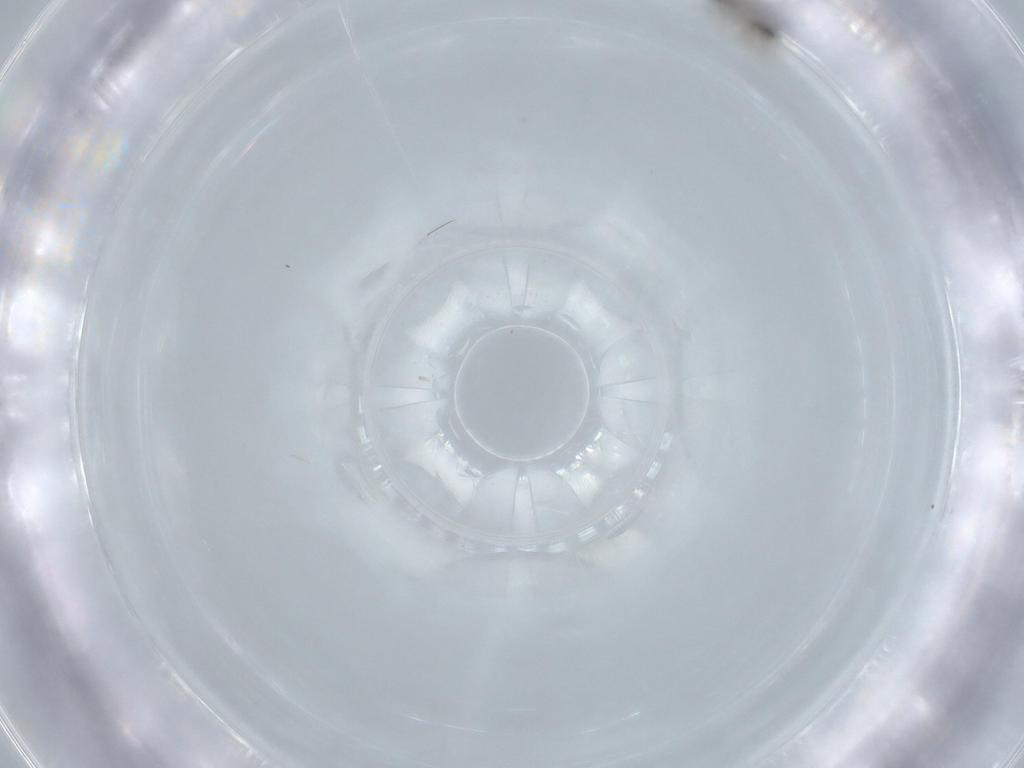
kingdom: Animalia
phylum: Arthropoda
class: Insecta
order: Hymenoptera
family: Mymaridae
